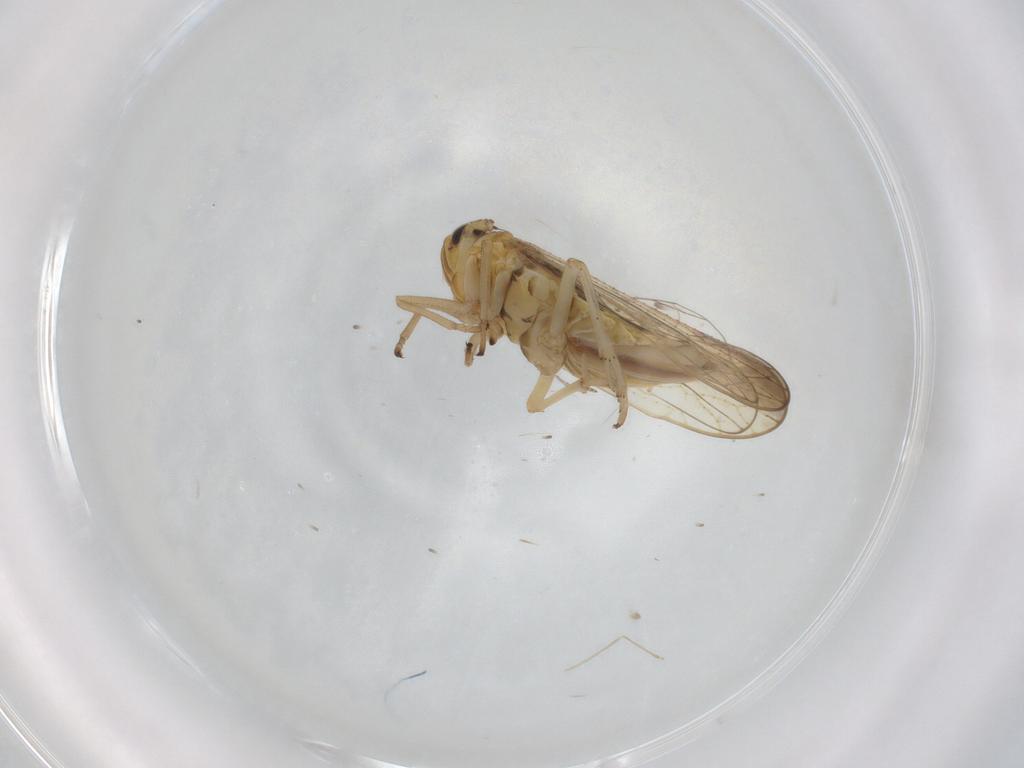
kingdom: Animalia
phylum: Arthropoda
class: Insecta
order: Hemiptera
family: Delphacidae
